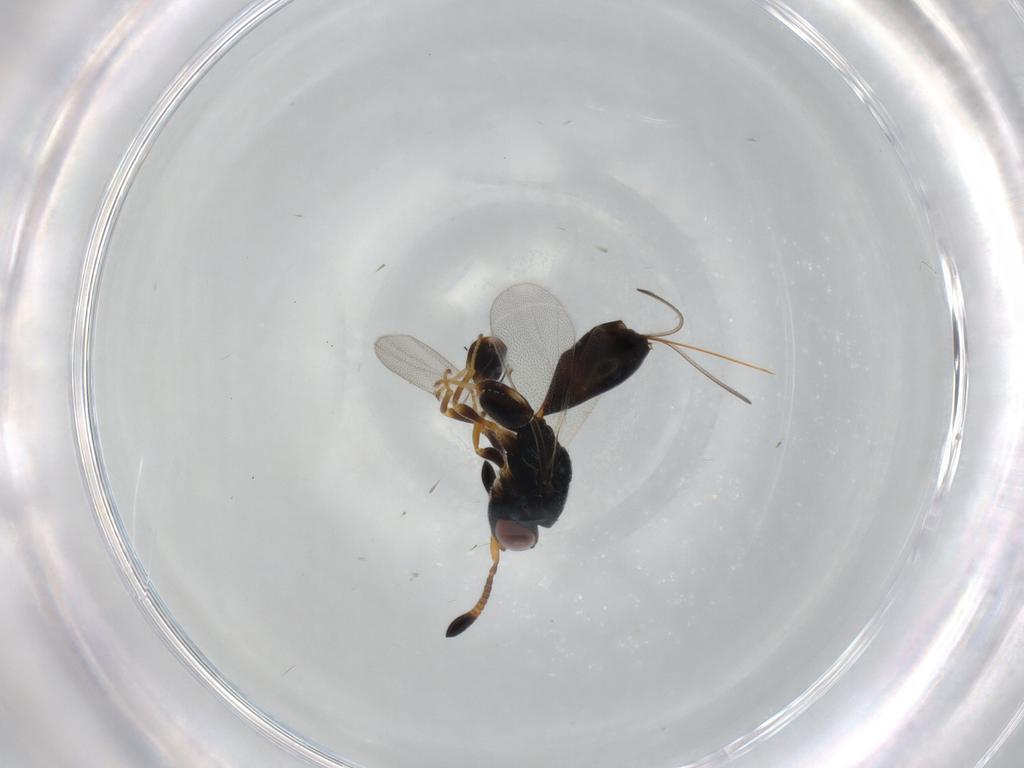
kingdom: Animalia
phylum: Arthropoda
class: Insecta
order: Hymenoptera
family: Torymidae
